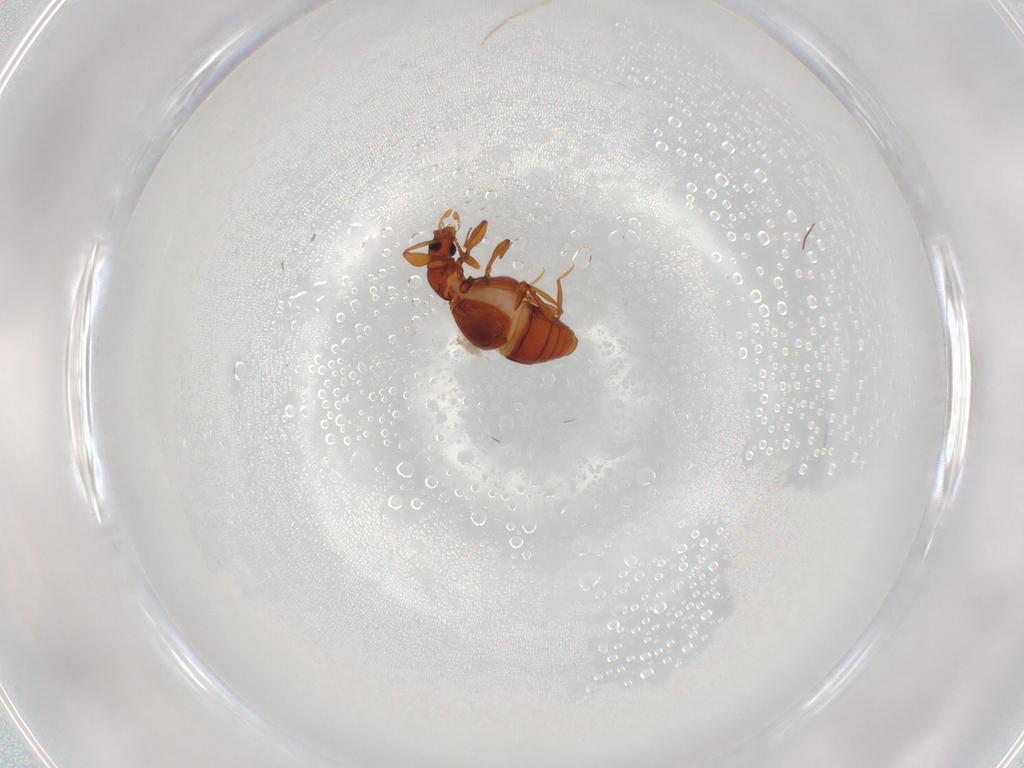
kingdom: Animalia
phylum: Arthropoda
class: Insecta
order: Coleoptera
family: Staphylinidae
